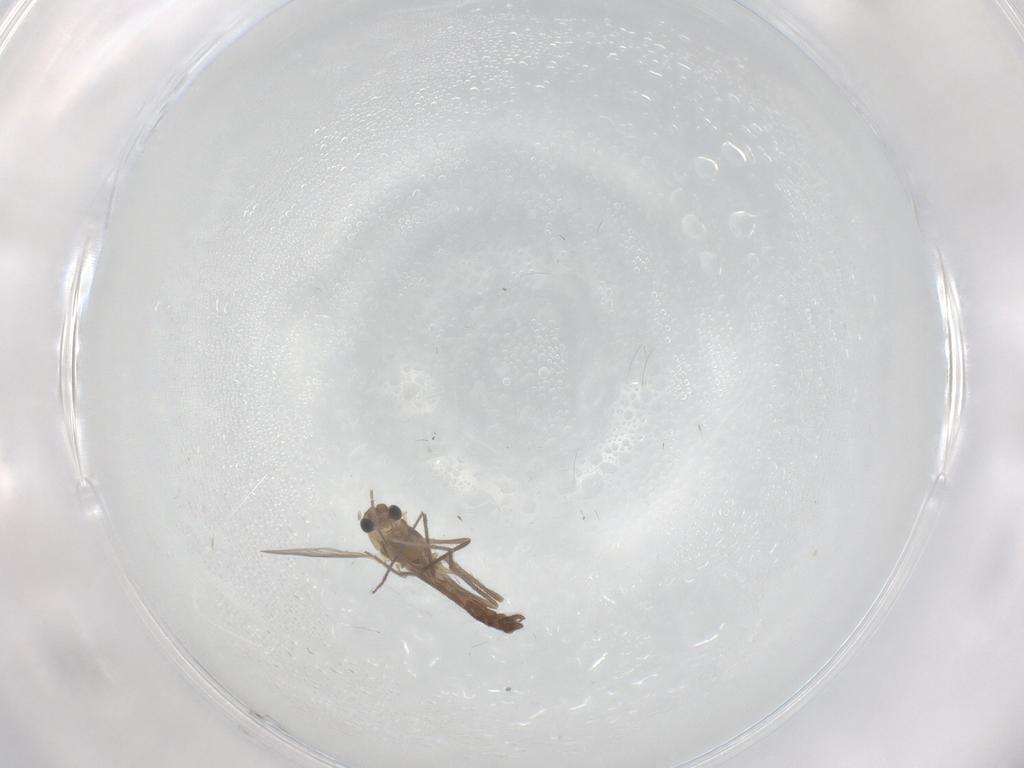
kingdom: Animalia
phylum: Arthropoda
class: Insecta
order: Diptera
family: Chironomidae
